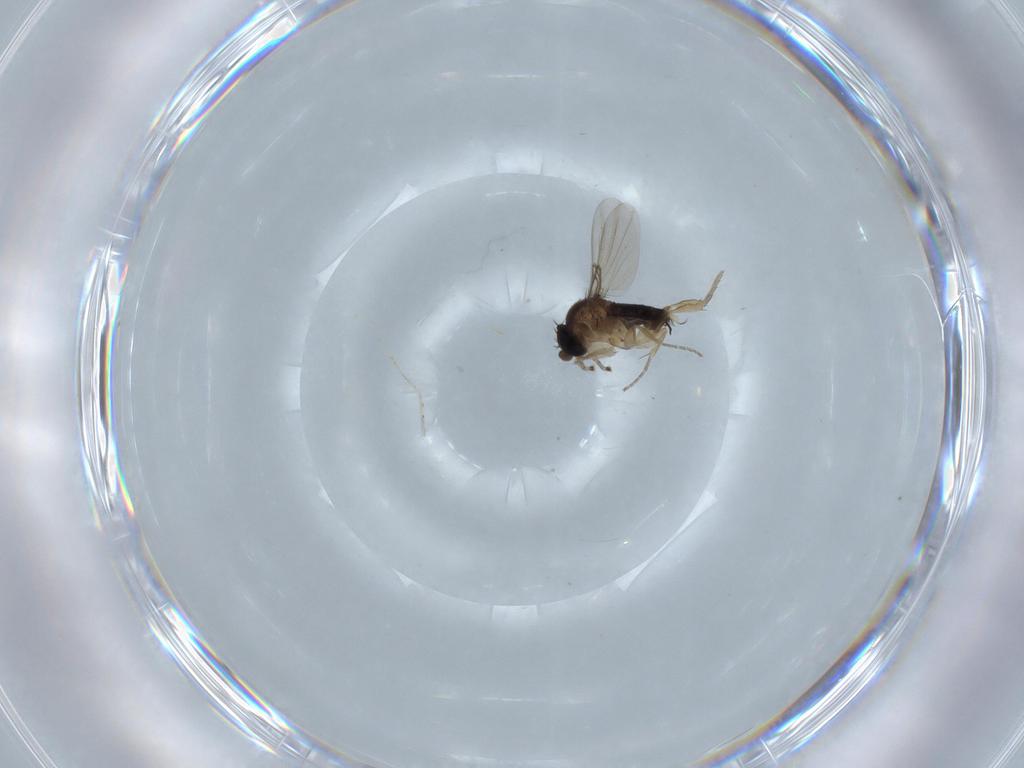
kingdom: Animalia
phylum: Arthropoda
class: Insecta
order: Diptera
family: Phoridae
